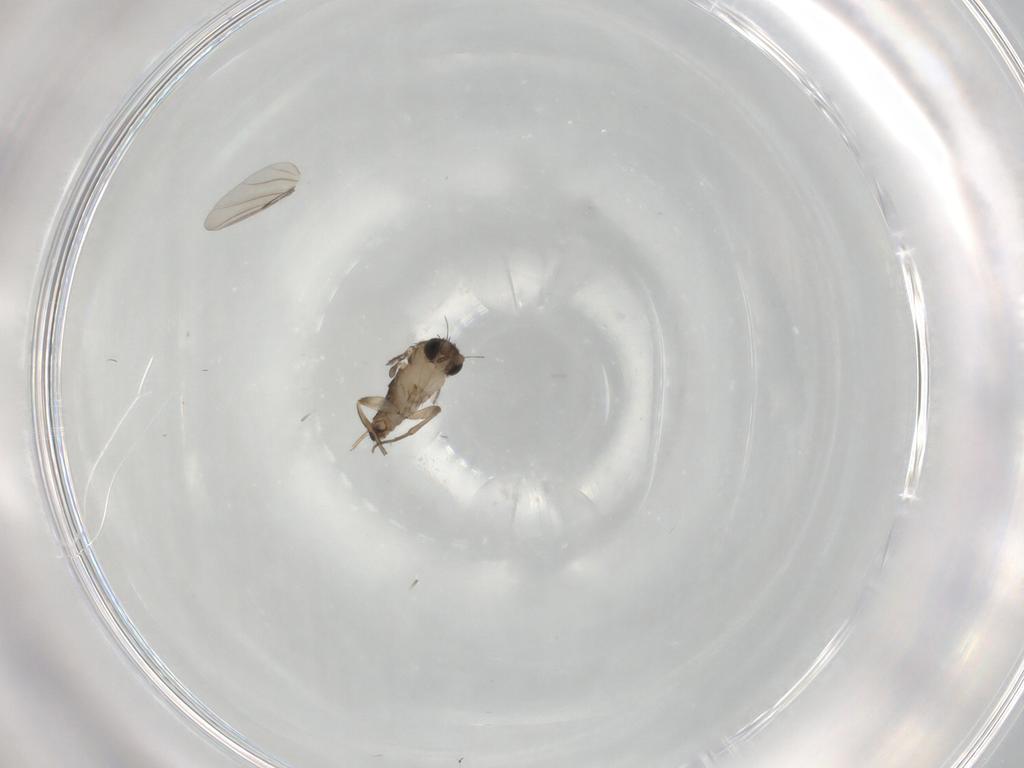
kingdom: Animalia
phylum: Arthropoda
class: Insecta
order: Diptera
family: Phoridae
